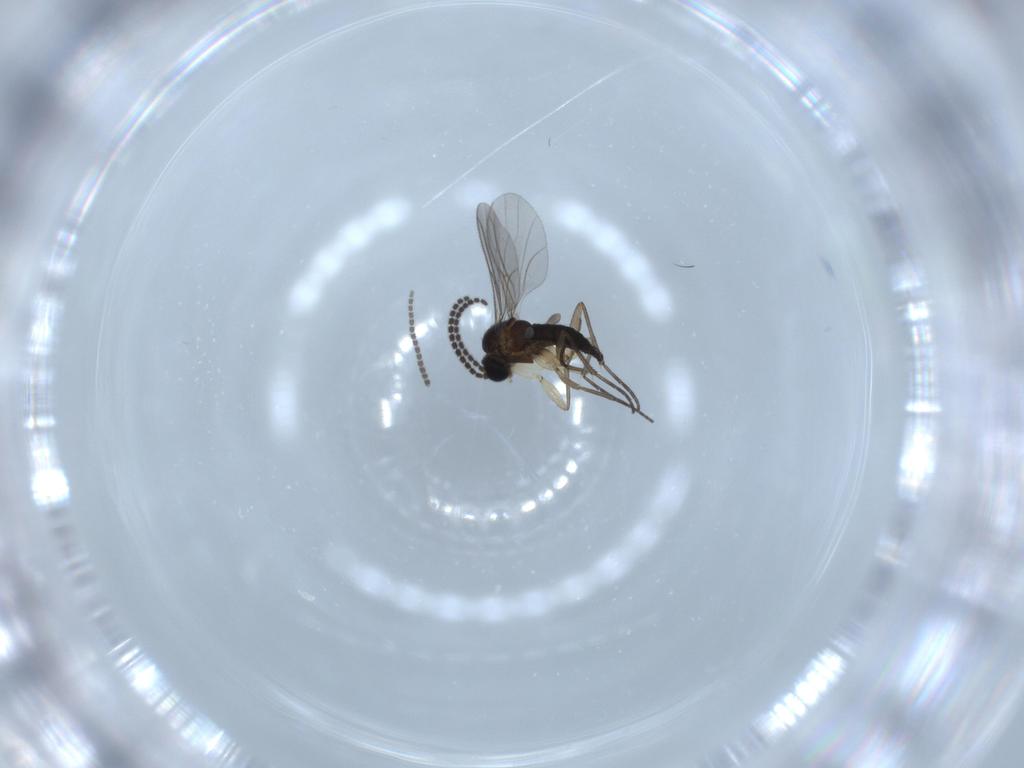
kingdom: Animalia
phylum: Arthropoda
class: Insecta
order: Diptera
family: Sciaridae
